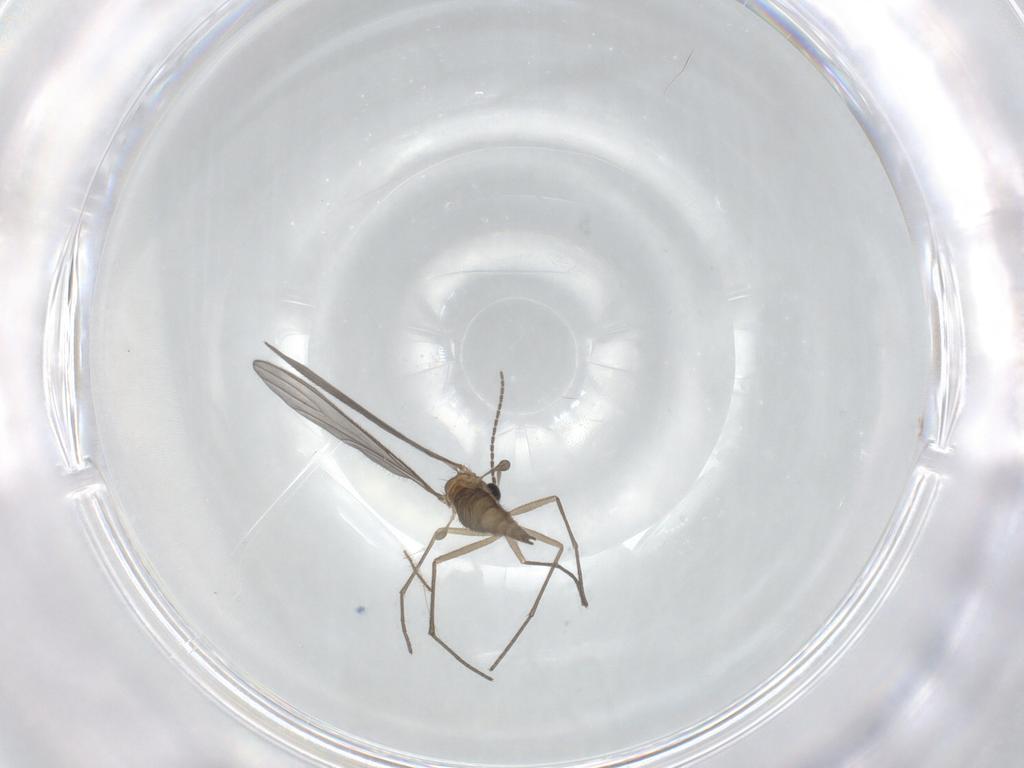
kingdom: Animalia
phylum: Arthropoda
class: Insecta
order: Diptera
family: Sciaridae
